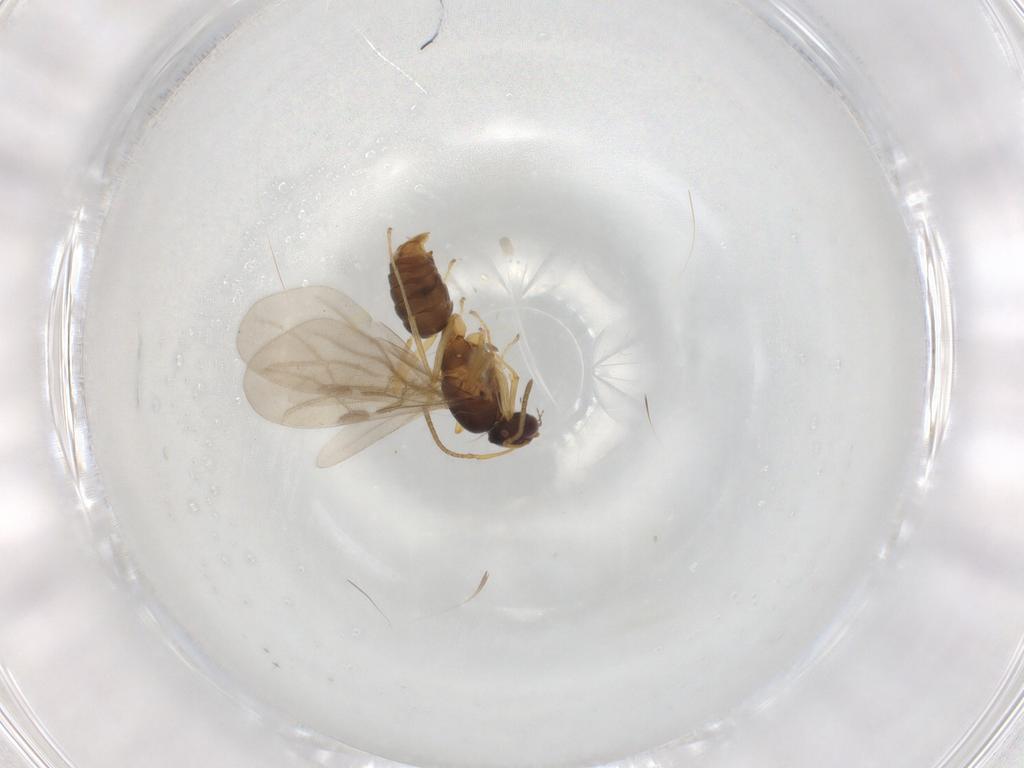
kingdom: Animalia
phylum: Arthropoda
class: Insecta
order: Hymenoptera
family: Formicidae
